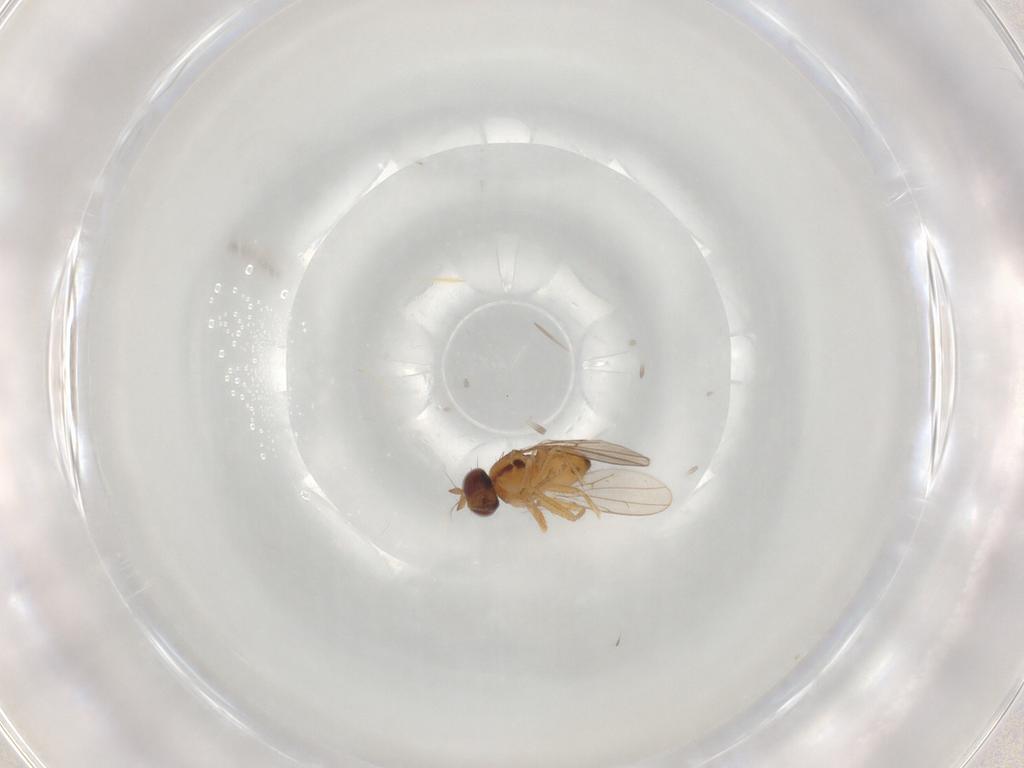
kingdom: Animalia
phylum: Arthropoda
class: Insecta
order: Diptera
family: Ephydridae
